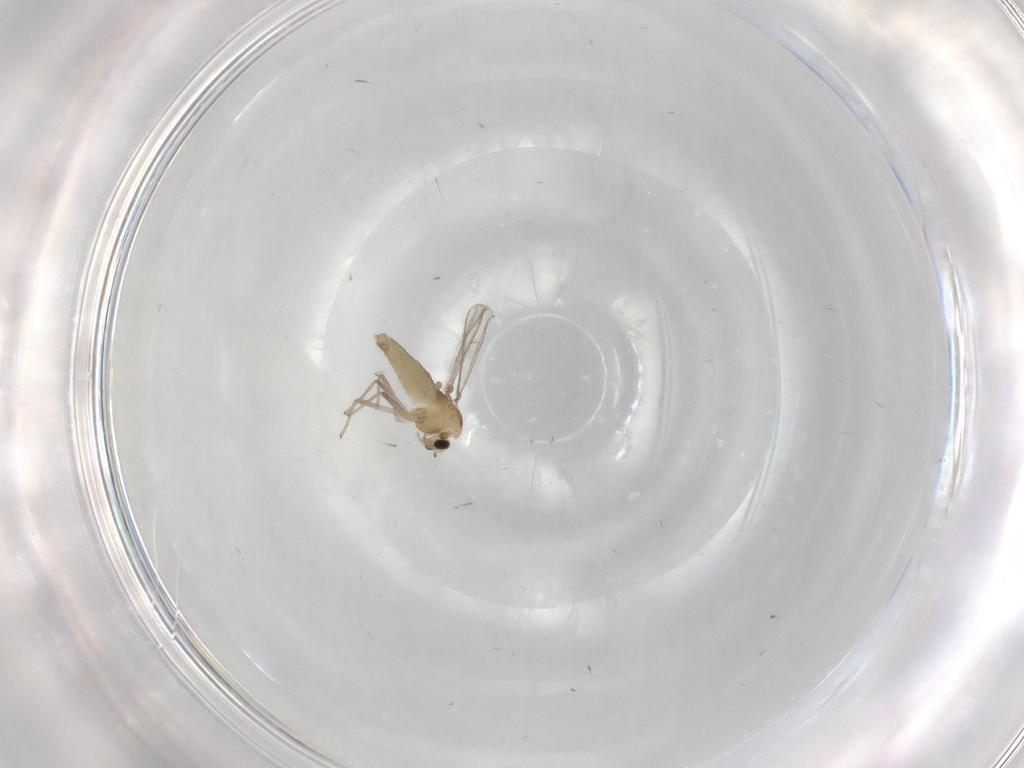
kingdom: Animalia
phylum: Arthropoda
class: Insecta
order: Diptera
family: Chironomidae
